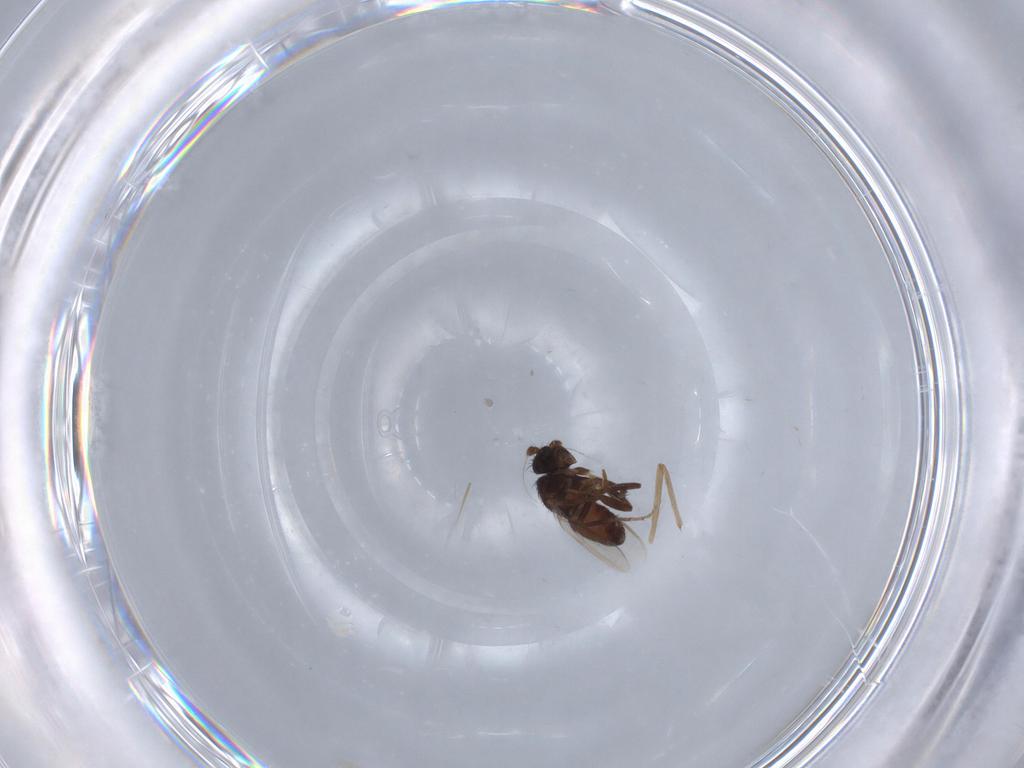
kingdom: Animalia
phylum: Arthropoda
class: Insecta
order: Diptera
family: Sphaeroceridae
